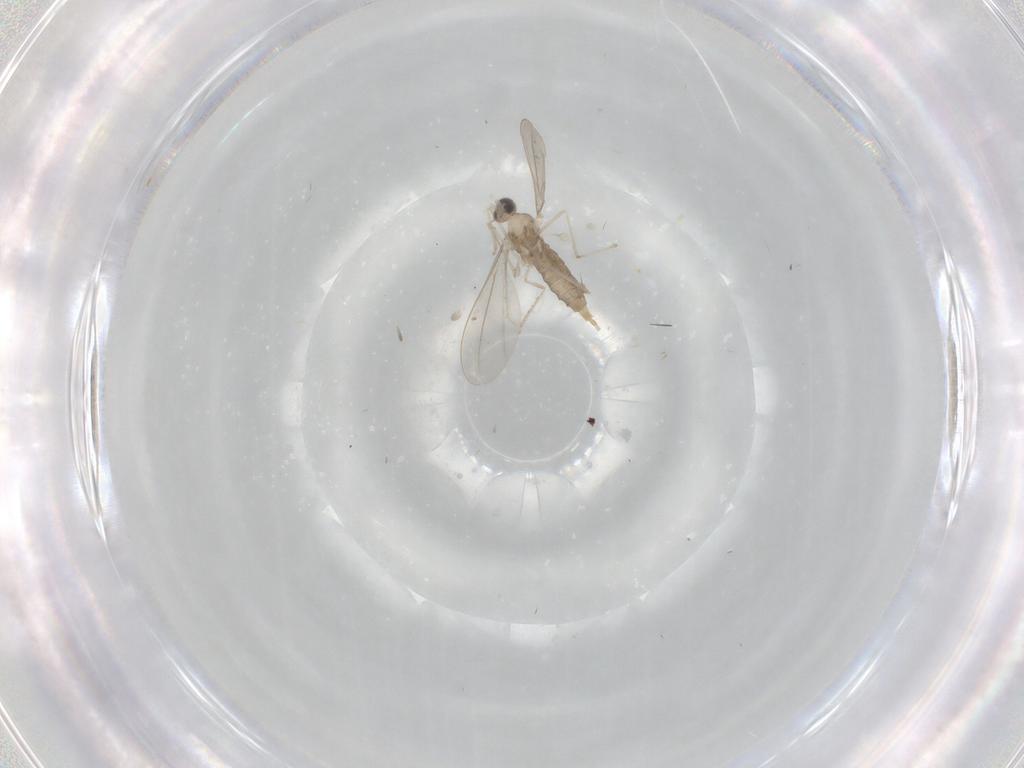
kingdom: Animalia
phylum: Arthropoda
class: Insecta
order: Diptera
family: Cecidomyiidae
